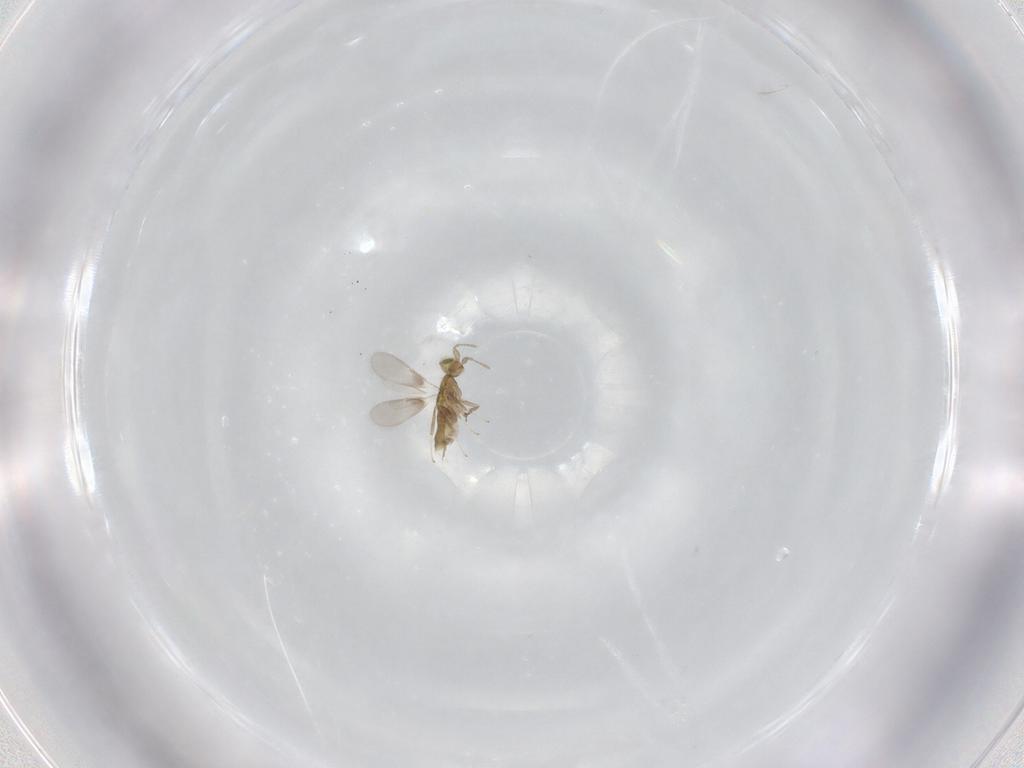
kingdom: Animalia
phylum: Arthropoda
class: Insecta
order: Hymenoptera
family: Aphelinidae
